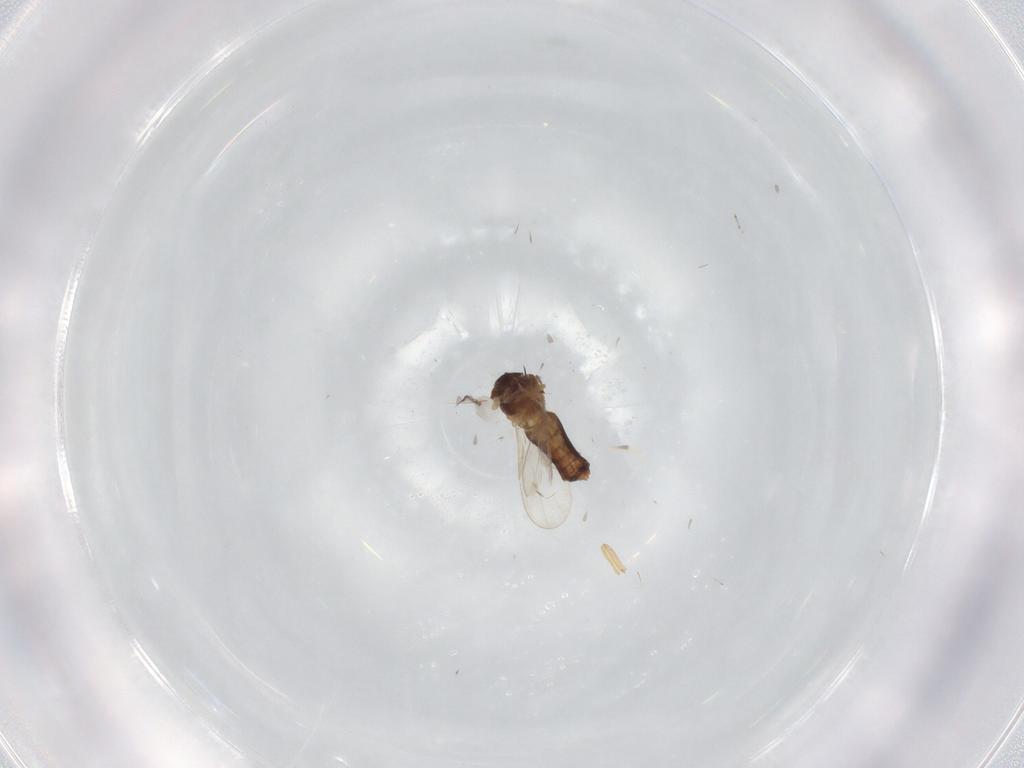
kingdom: Animalia
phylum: Arthropoda
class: Insecta
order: Diptera
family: Ceratopogonidae
